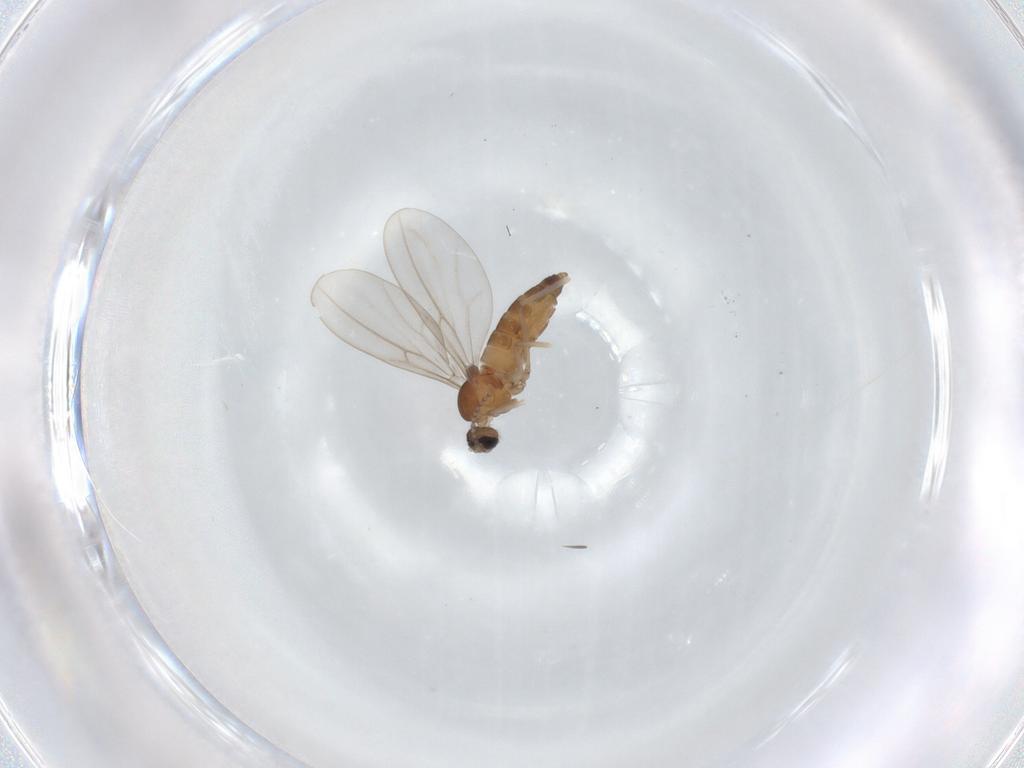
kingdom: Animalia
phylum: Arthropoda
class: Insecta
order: Diptera
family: Cecidomyiidae
